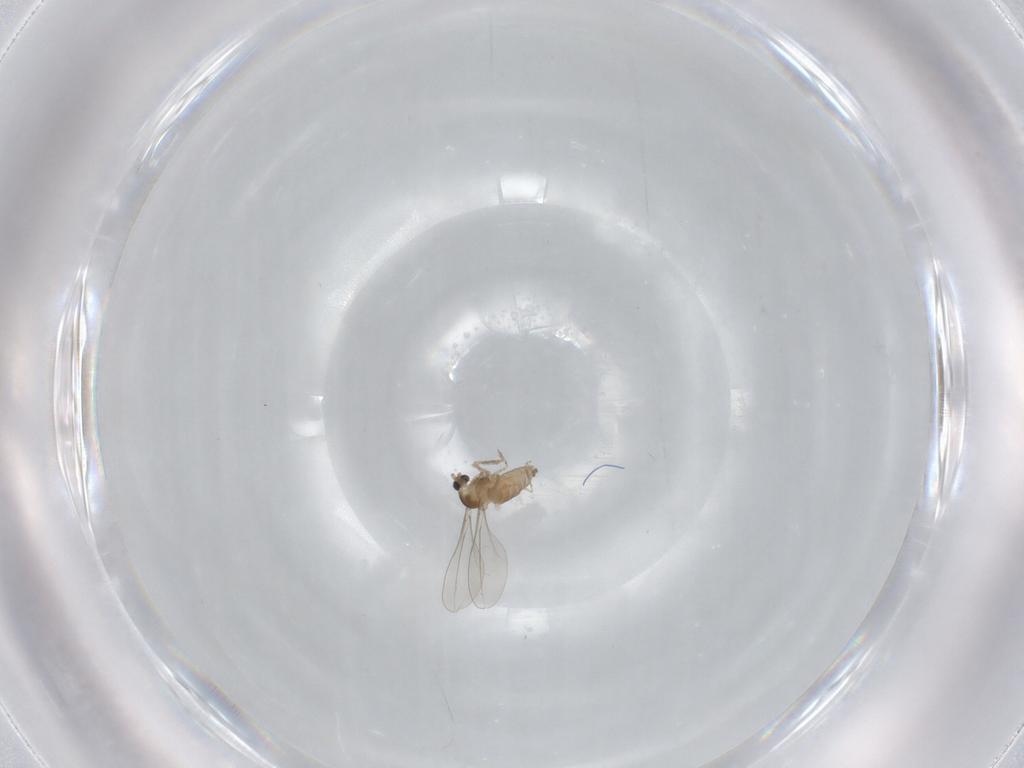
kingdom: Animalia
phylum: Arthropoda
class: Insecta
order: Diptera
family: Cecidomyiidae
